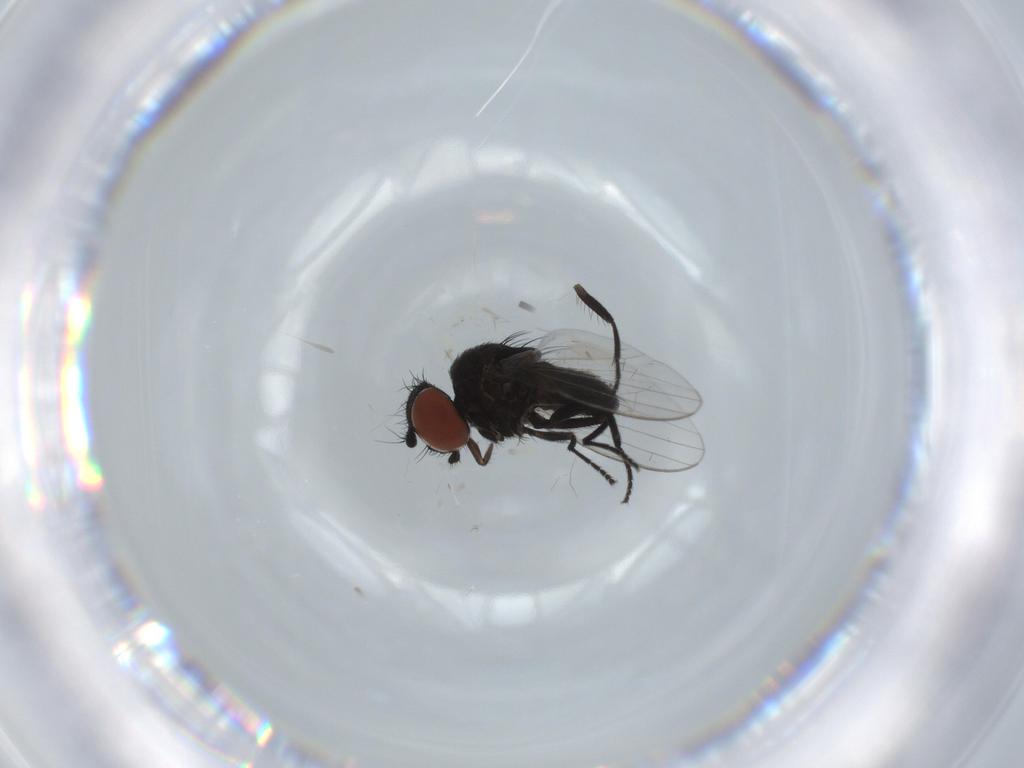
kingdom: Animalia
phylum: Arthropoda
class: Insecta
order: Diptera
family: Milichiidae
